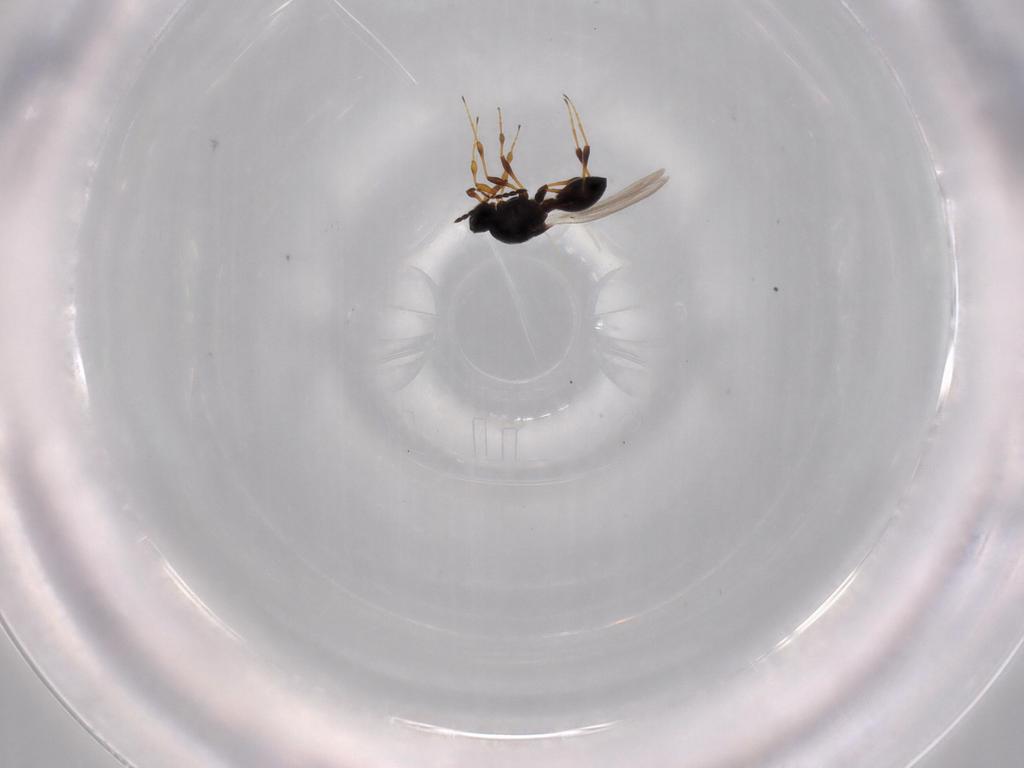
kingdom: Animalia
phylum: Arthropoda
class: Insecta
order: Hymenoptera
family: Platygastridae
